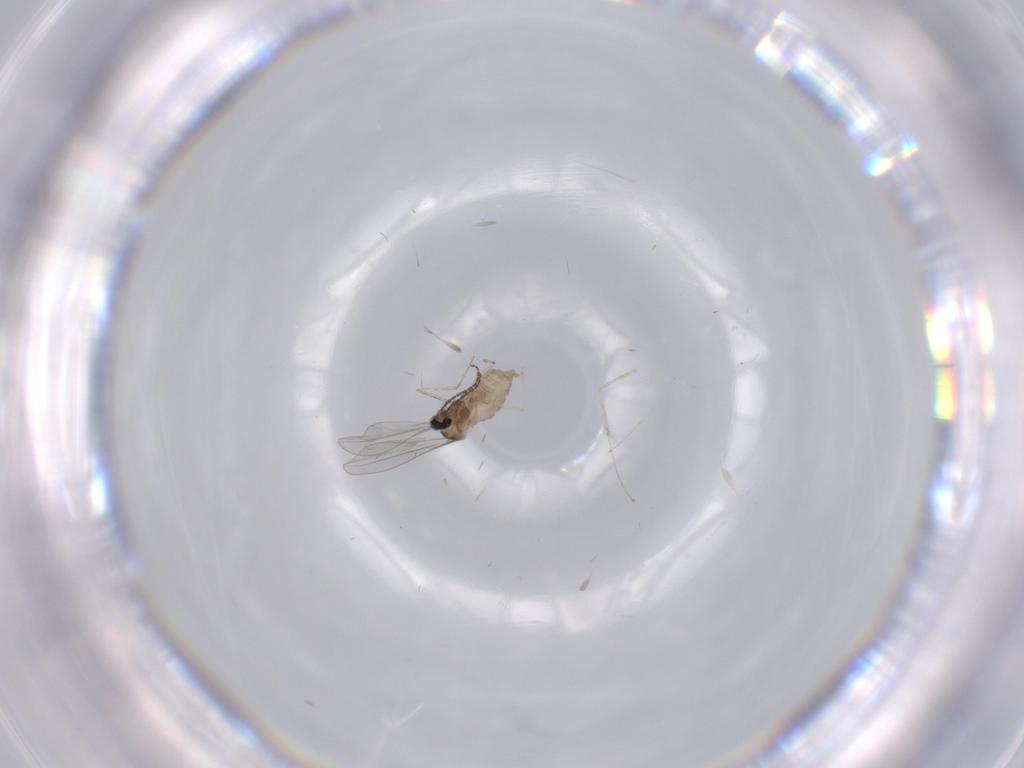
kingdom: Animalia
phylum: Arthropoda
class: Insecta
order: Diptera
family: Cecidomyiidae
